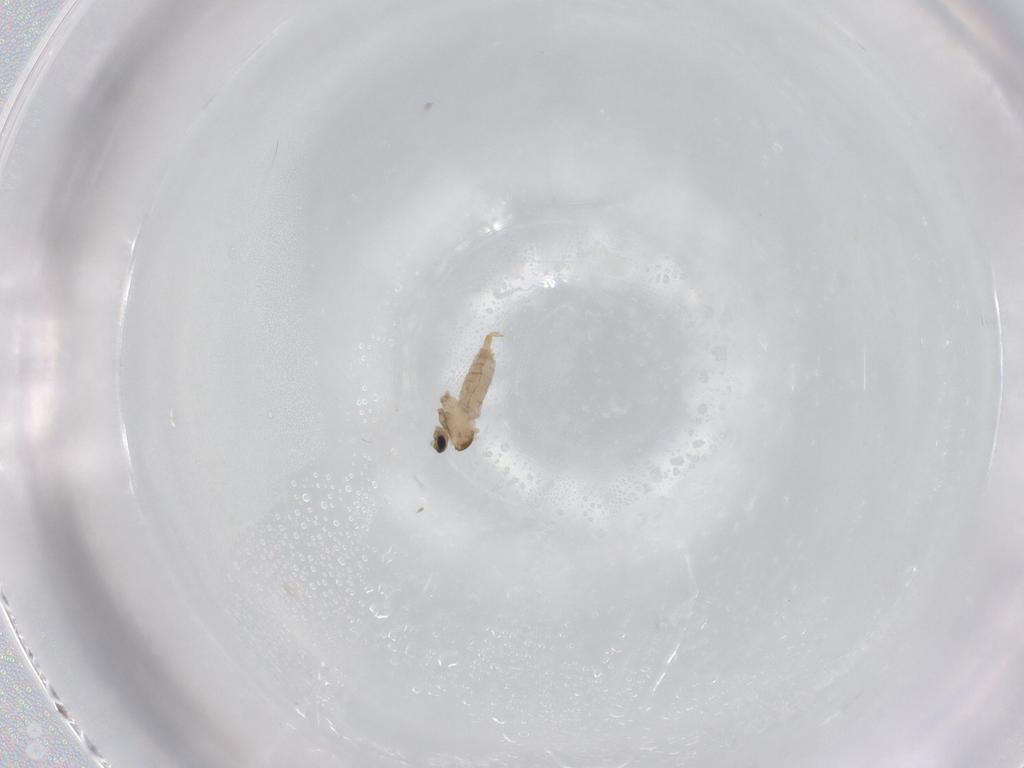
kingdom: Animalia
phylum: Arthropoda
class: Insecta
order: Diptera
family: Cecidomyiidae
